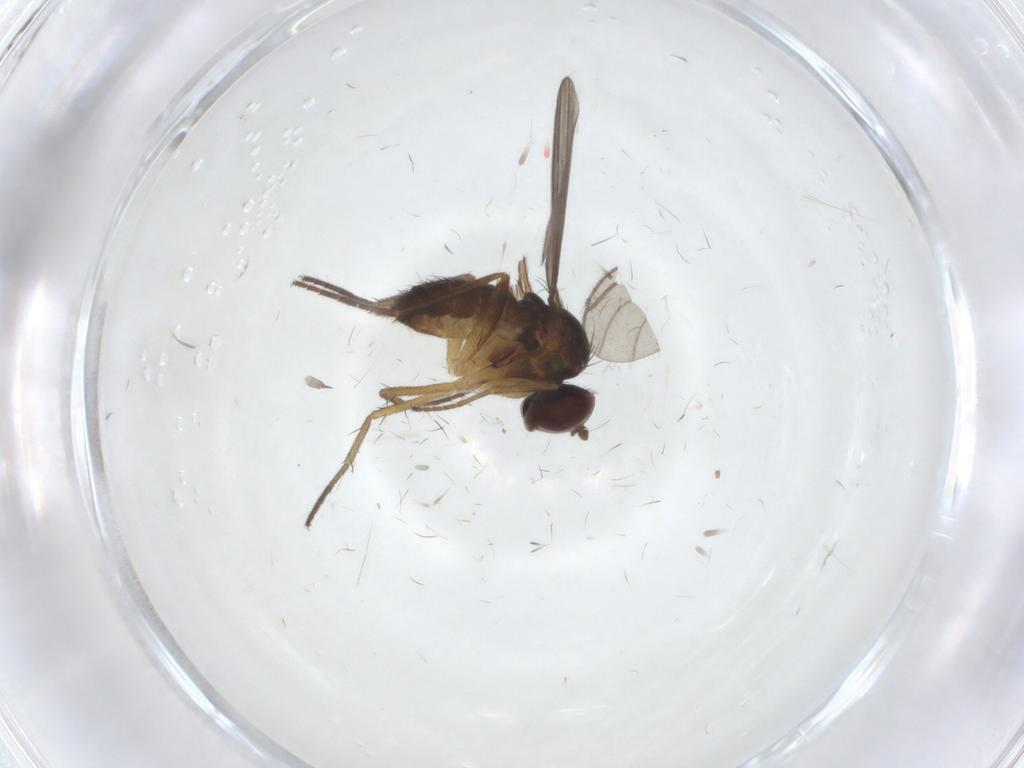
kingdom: Animalia
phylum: Arthropoda
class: Insecta
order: Diptera
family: Dolichopodidae
